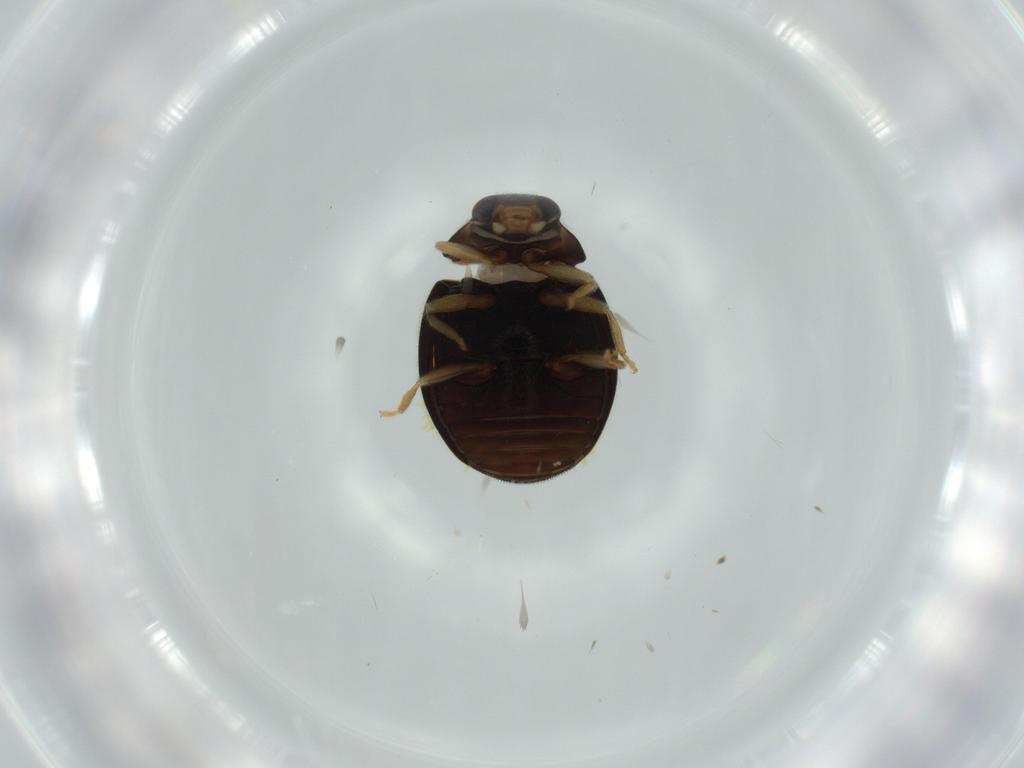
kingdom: Animalia
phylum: Arthropoda
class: Insecta
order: Coleoptera
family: Coccinellidae
